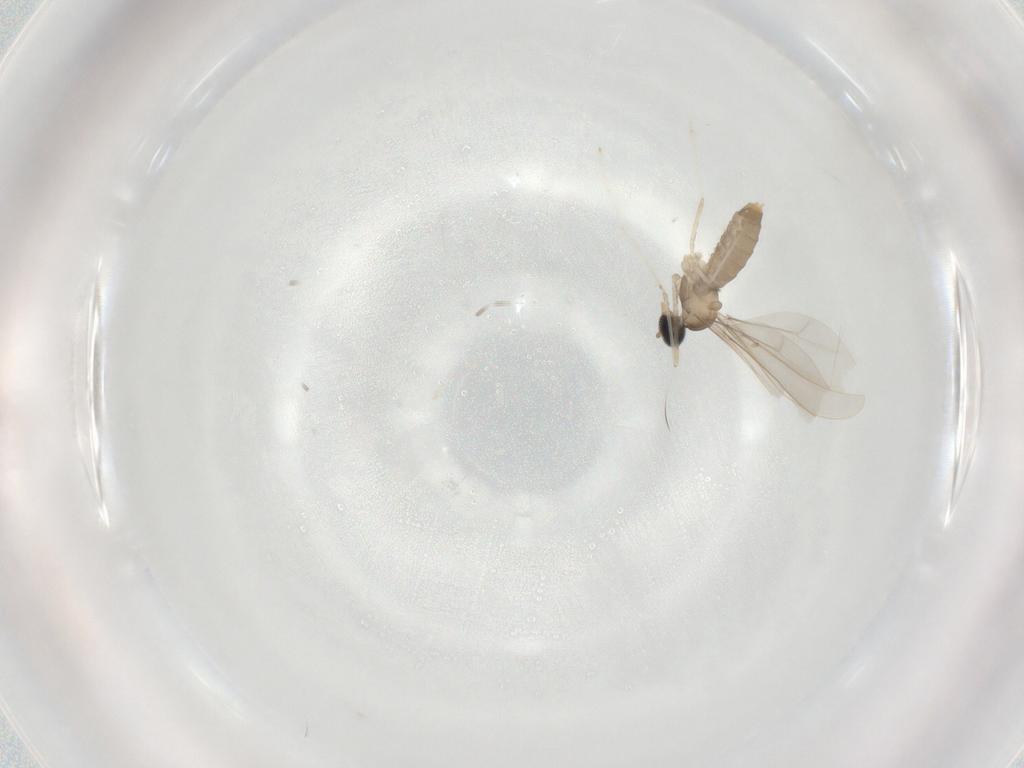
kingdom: Animalia
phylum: Arthropoda
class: Insecta
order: Diptera
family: Cecidomyiidae
